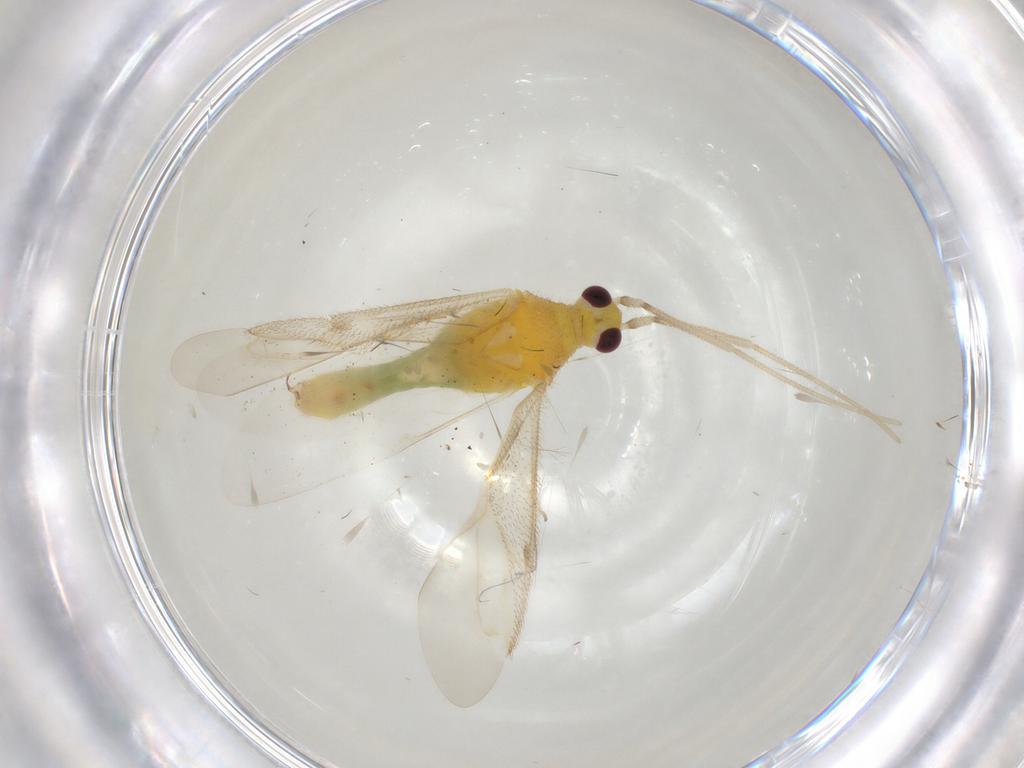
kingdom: Animalia
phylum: Arthropoda
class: Insecta
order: Hemiptera
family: Miridae
